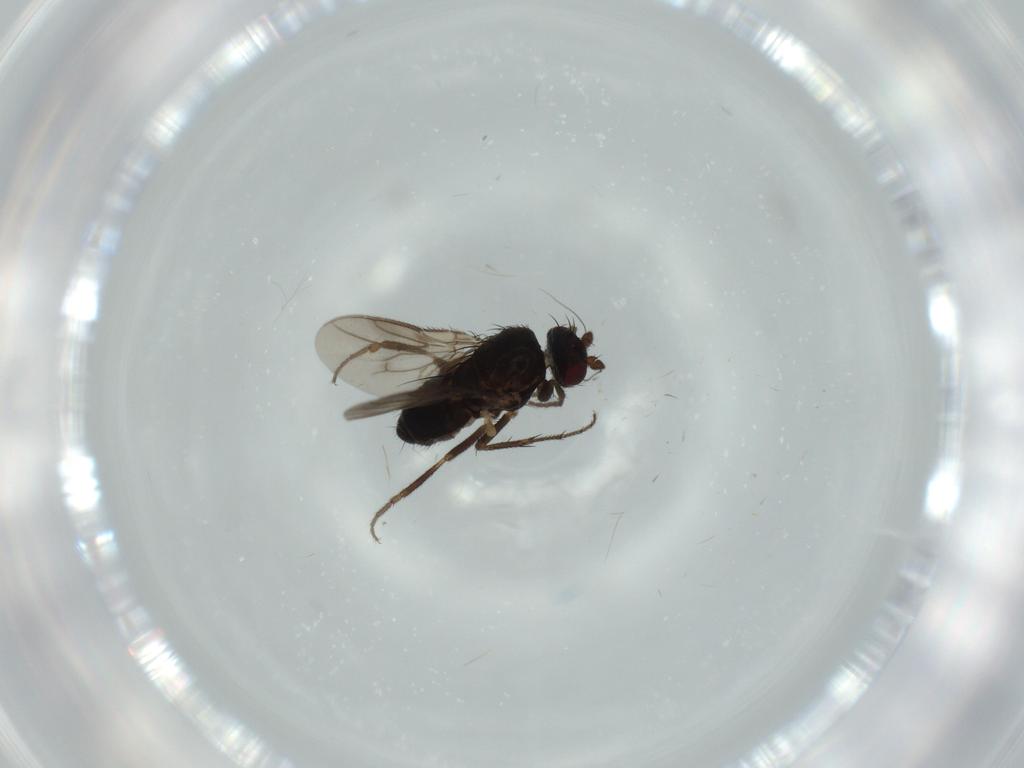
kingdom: Animalia
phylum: Arthropoda
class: Insecta
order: Diptera
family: Sciaridae
